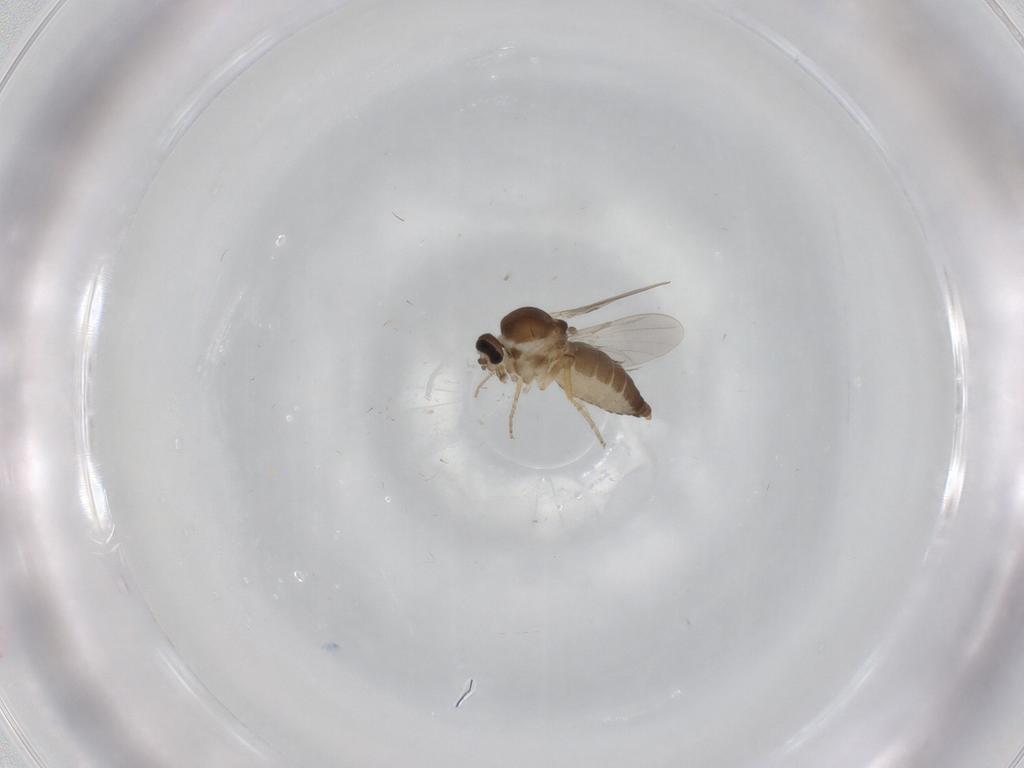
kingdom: Animalia
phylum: Arthropoda
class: Insecta
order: Diptera
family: Ceratopogonidae
